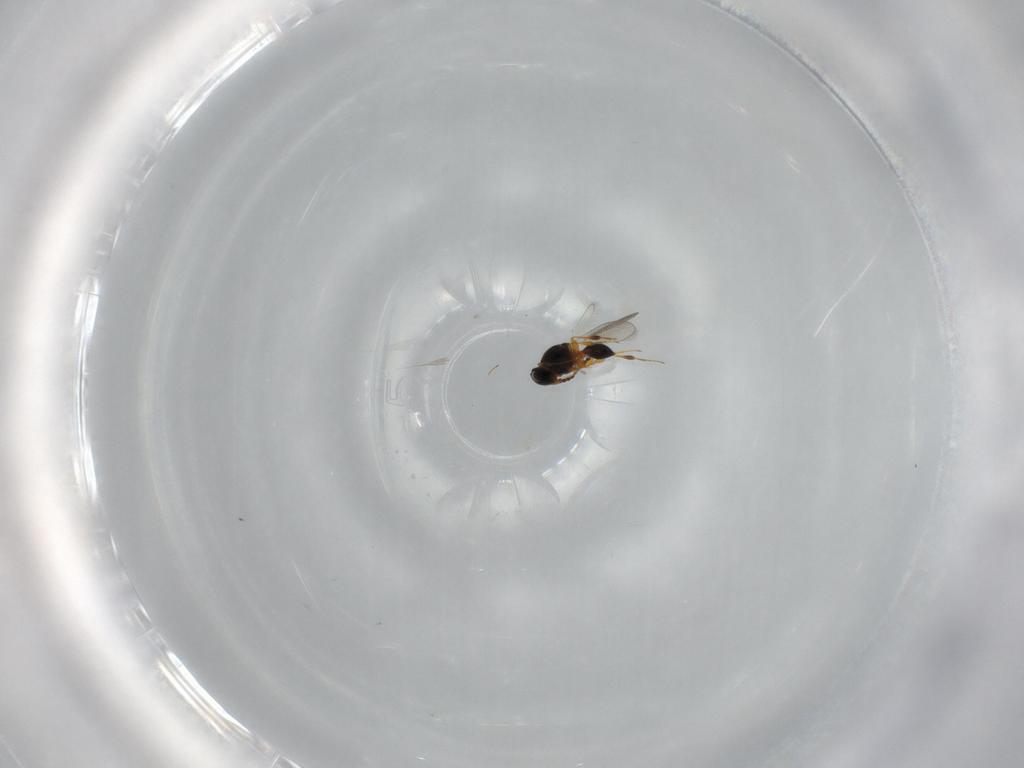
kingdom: Animalia
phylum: Arthropoda
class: Insecta
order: Hymenoptera
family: Platygastridae
